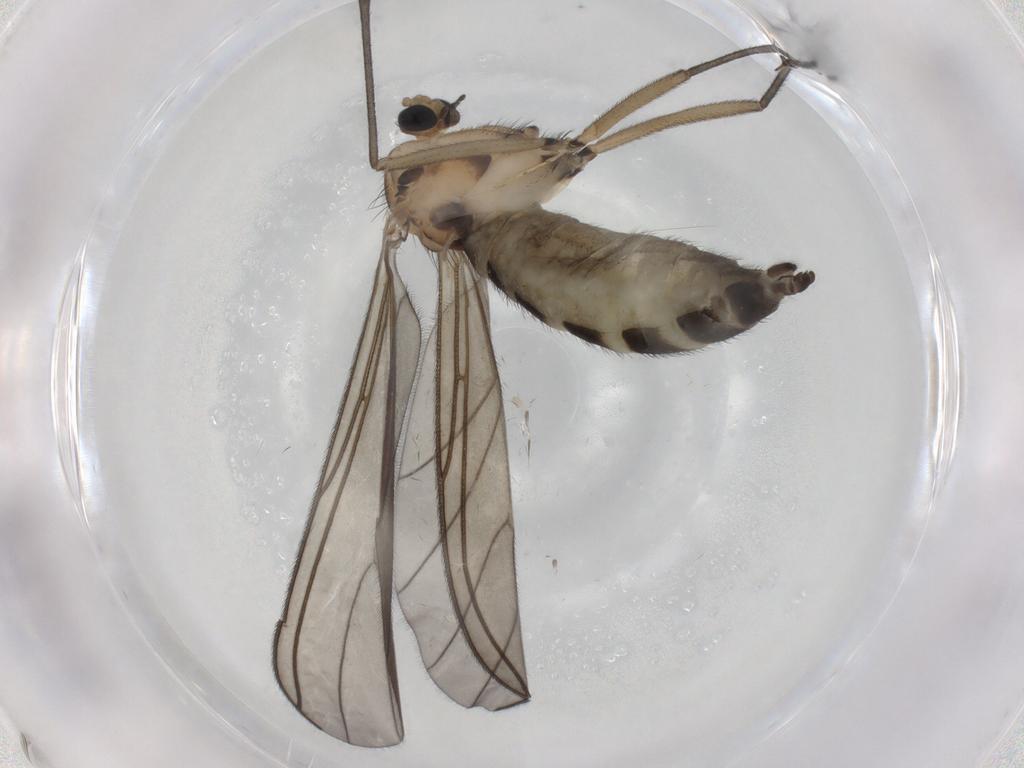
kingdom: Animalia
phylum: Arthropoda
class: Insecta
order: Diptera
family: Sciaridae
